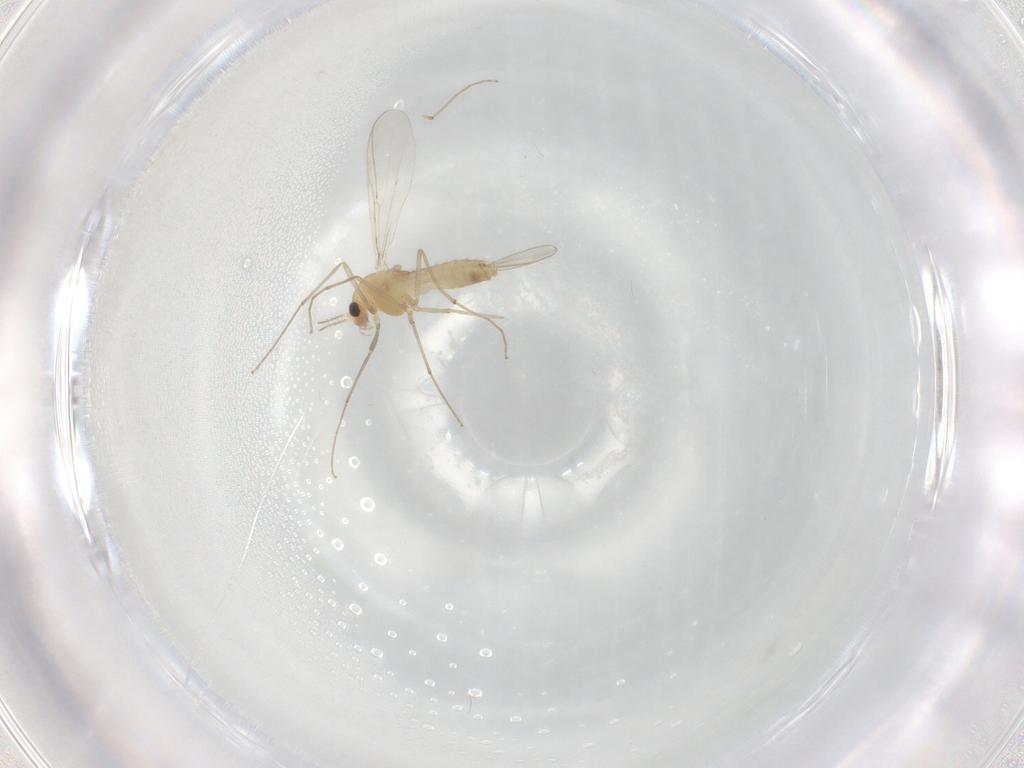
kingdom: Animalia
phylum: Arthropoda
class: Insecta
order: Diptera
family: Chironomidae
